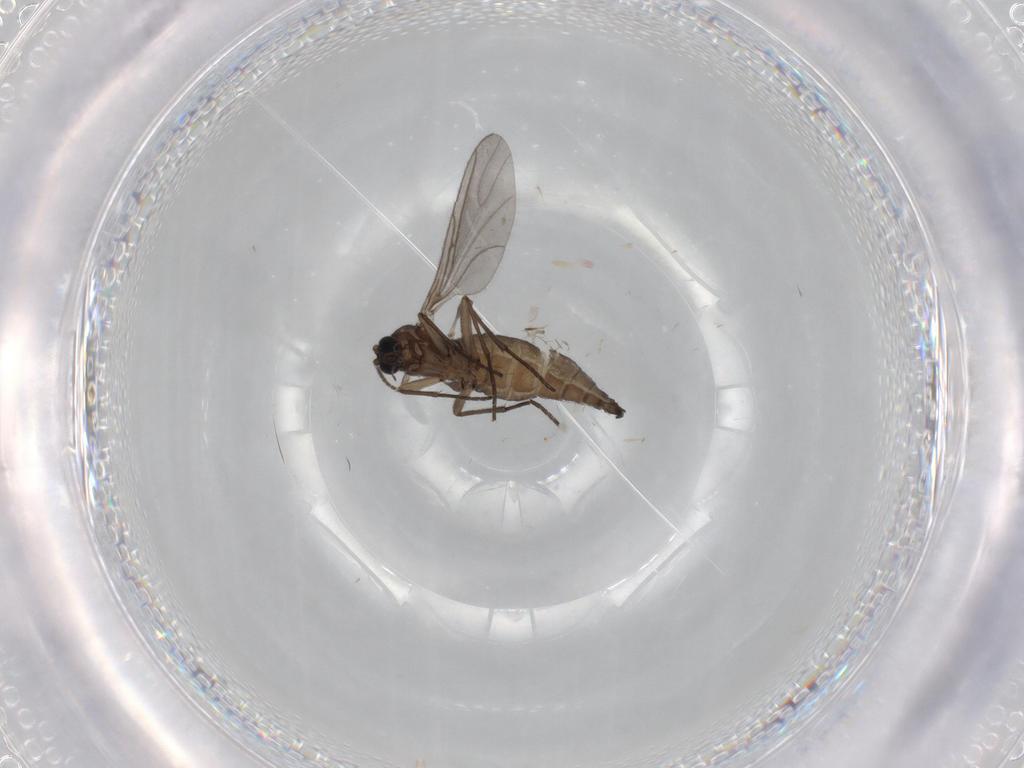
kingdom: Animalia
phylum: Arthropoda
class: Insecta
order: Diptera
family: Sciaridae
